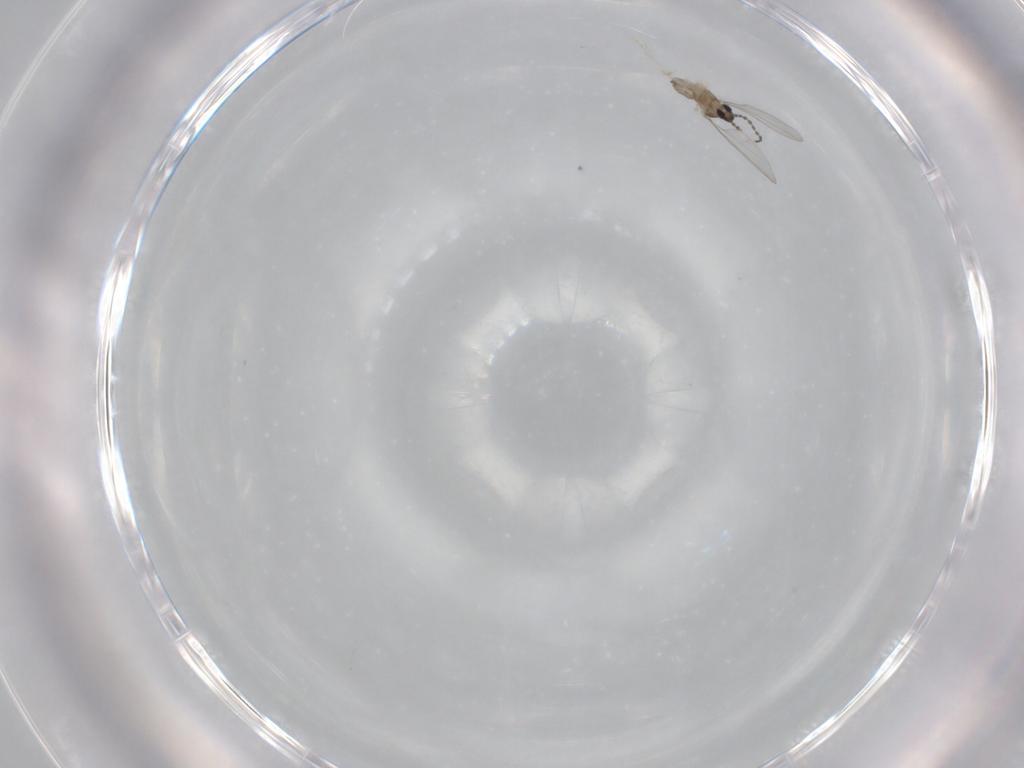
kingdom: Animalia
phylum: Arthropoda
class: Insecta
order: Diptera
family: Cecidomyiidae
